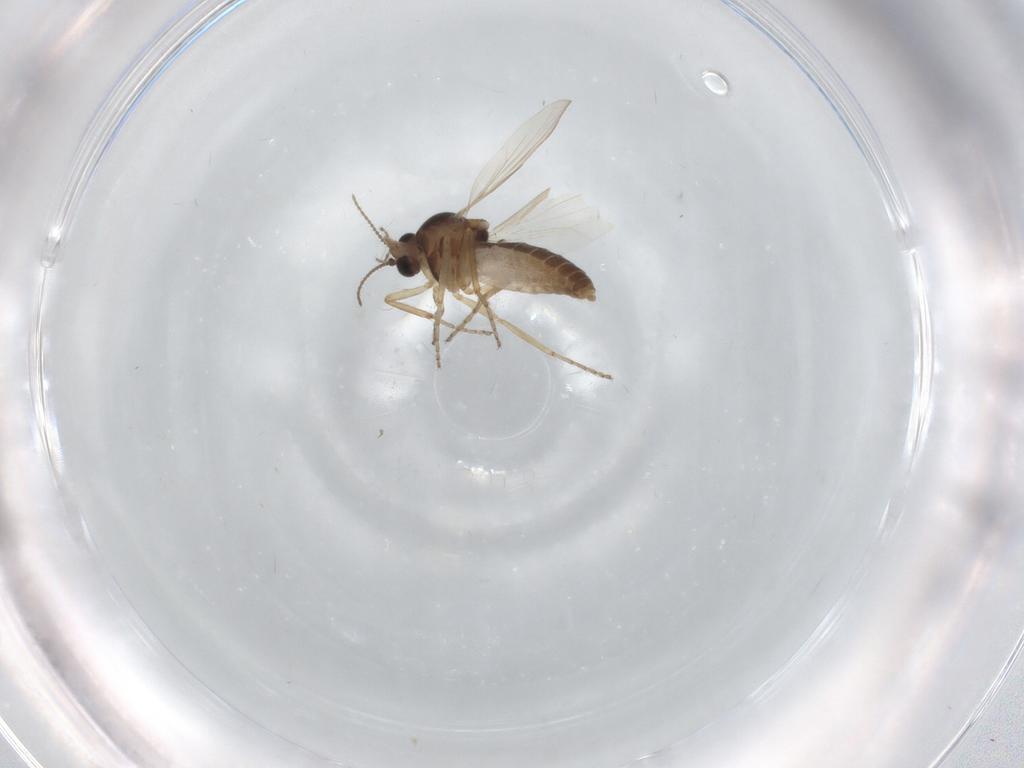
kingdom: Animalia
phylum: Arthropoda
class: Insecta
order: Diptera
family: Ceratopogonidae
